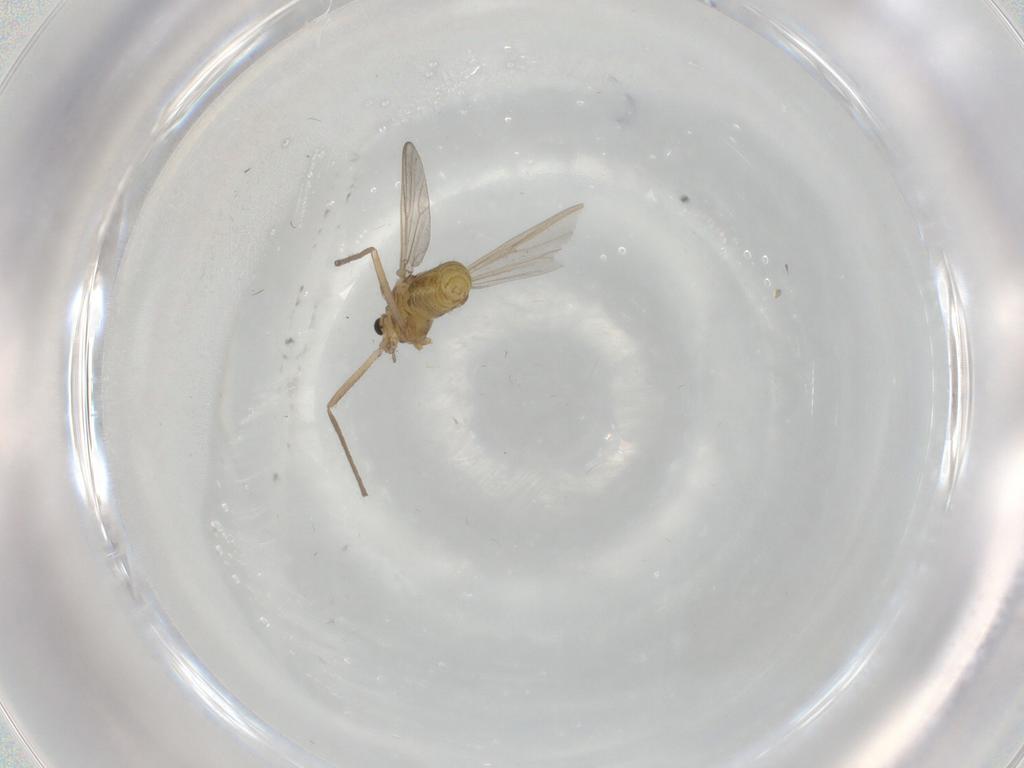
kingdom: Animalia
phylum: Arthropoda
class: Insecta
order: Diptera
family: Chironomidae
